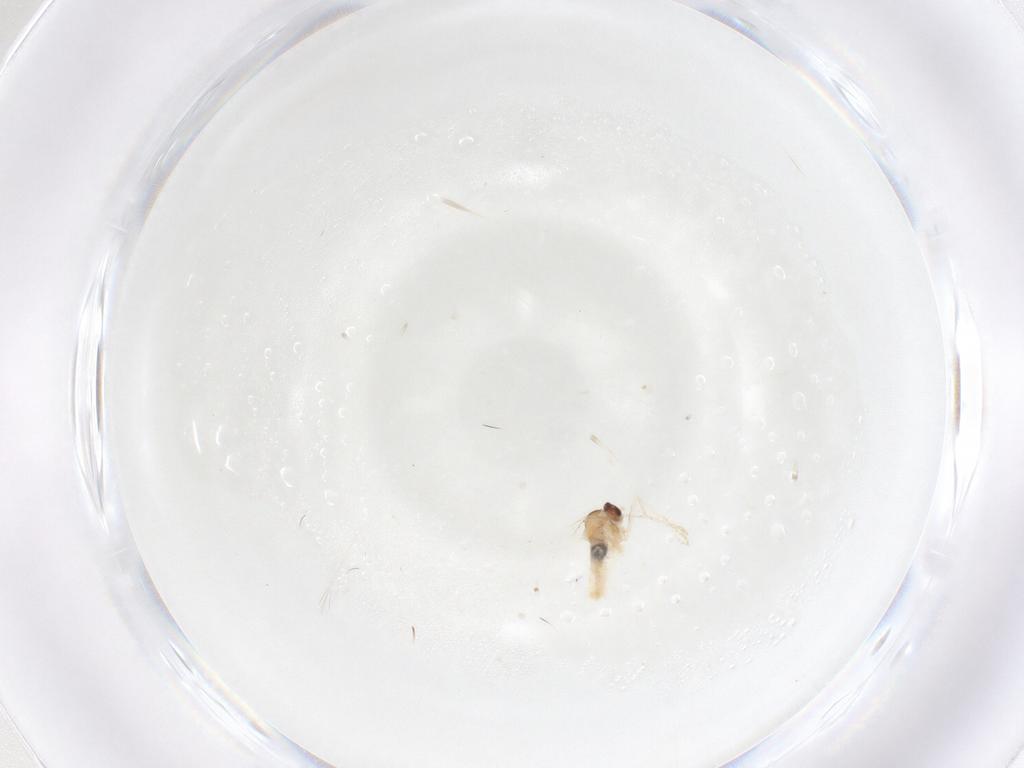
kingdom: Animalia
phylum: Arthropoda
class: Insecta
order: Diptera
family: Cecidomyiidae
